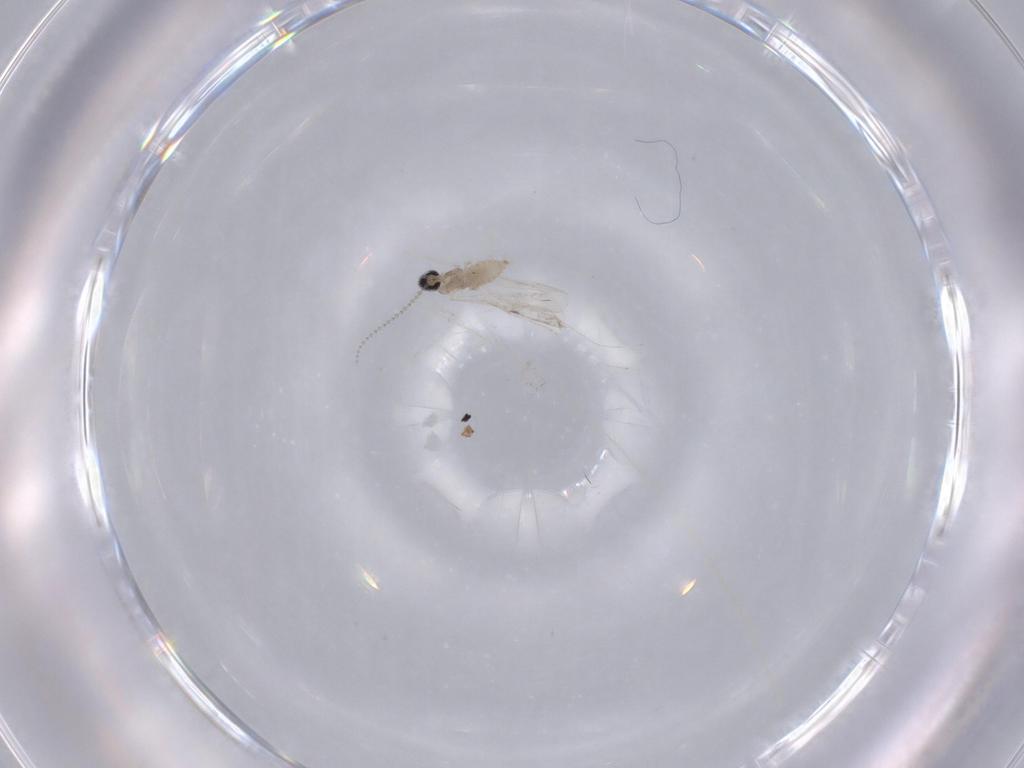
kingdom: Animalia
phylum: Arthropoda
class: Insecta
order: Diptera
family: Cecidomyiidae
